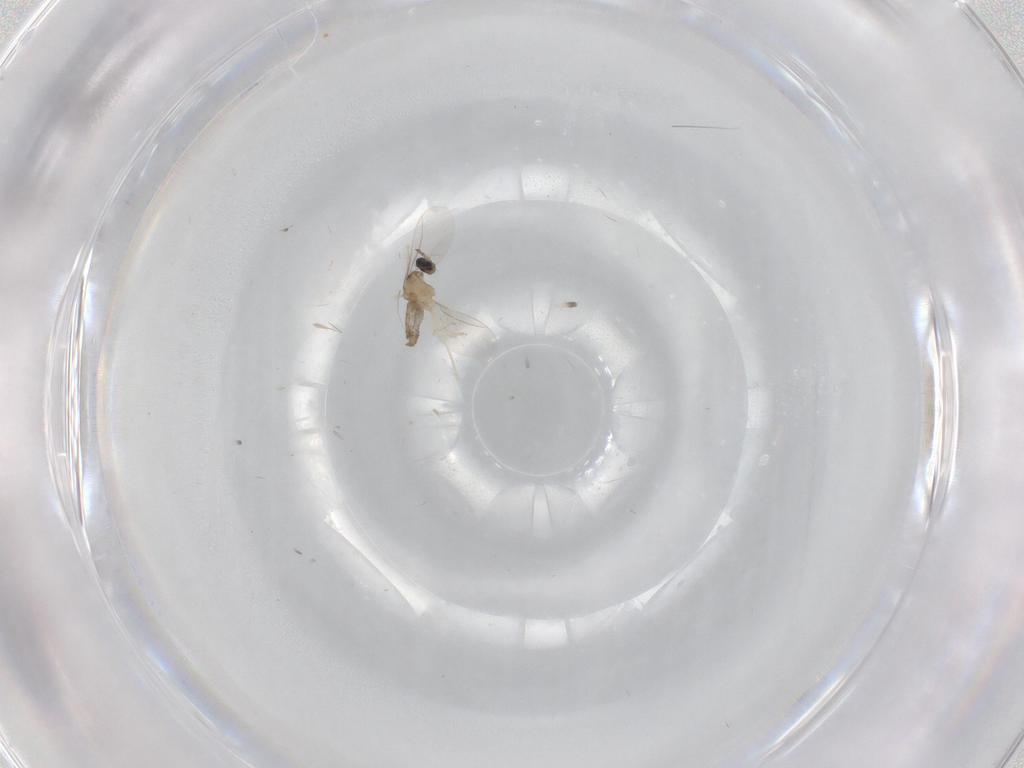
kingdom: Animalia
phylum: Arthropoda
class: Insecta
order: Diptera
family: Cecidomyiidae
